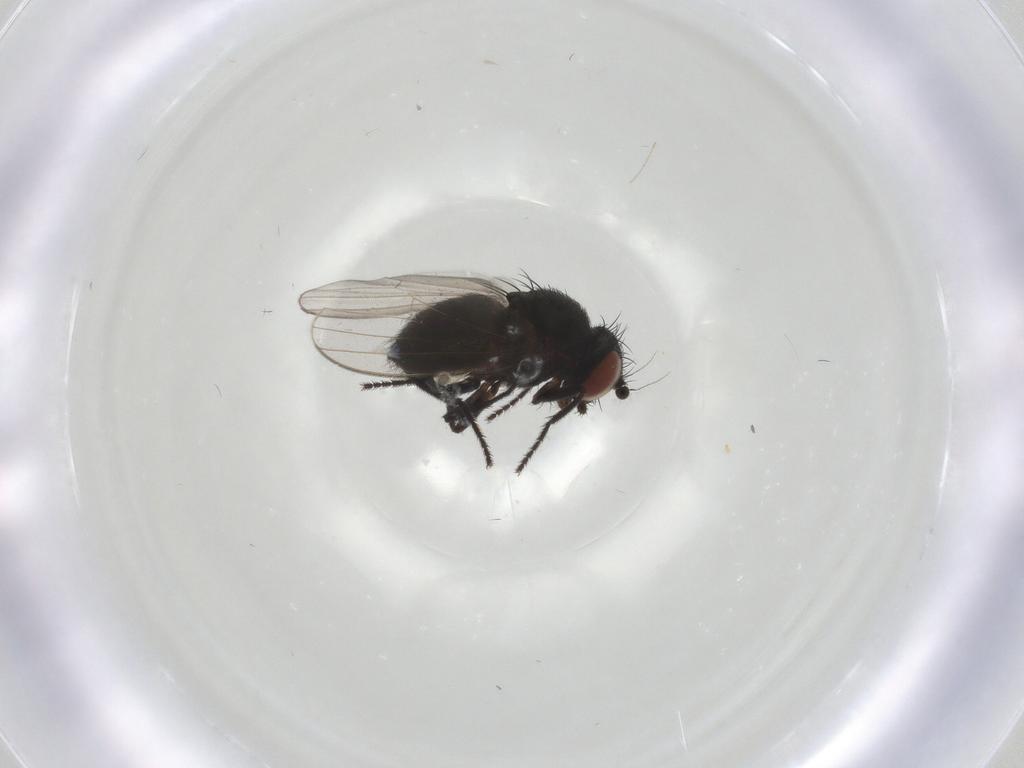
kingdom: Animalia
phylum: Arthropoda
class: Insecta
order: Diptera
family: Milichiidae
